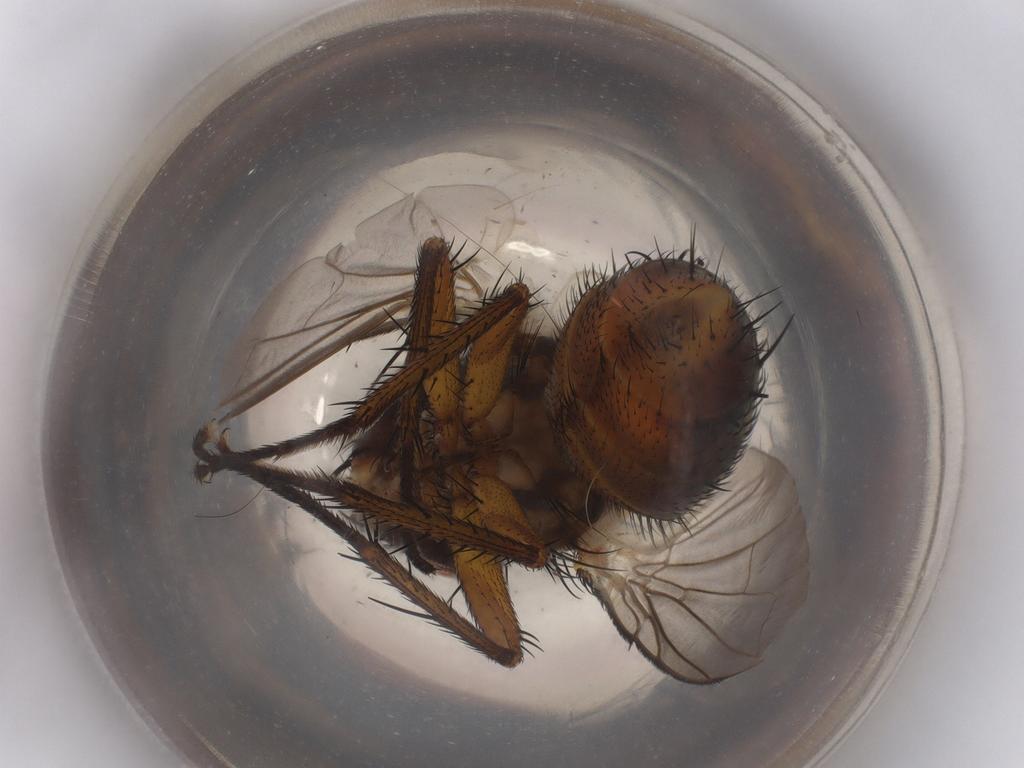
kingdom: Animalia
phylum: Arthropoda
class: Insecta
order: Diptera
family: Tachinidae
